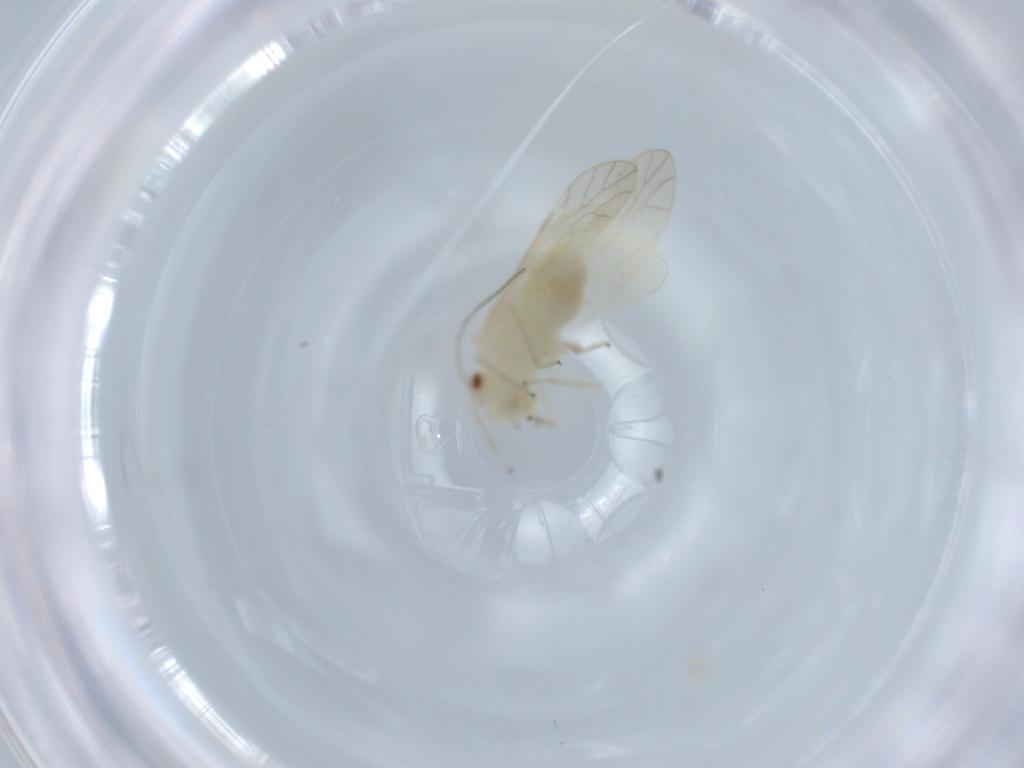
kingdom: Animalia
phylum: Arthropoda
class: Insecta
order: Psocodea
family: Caeciliusidae
